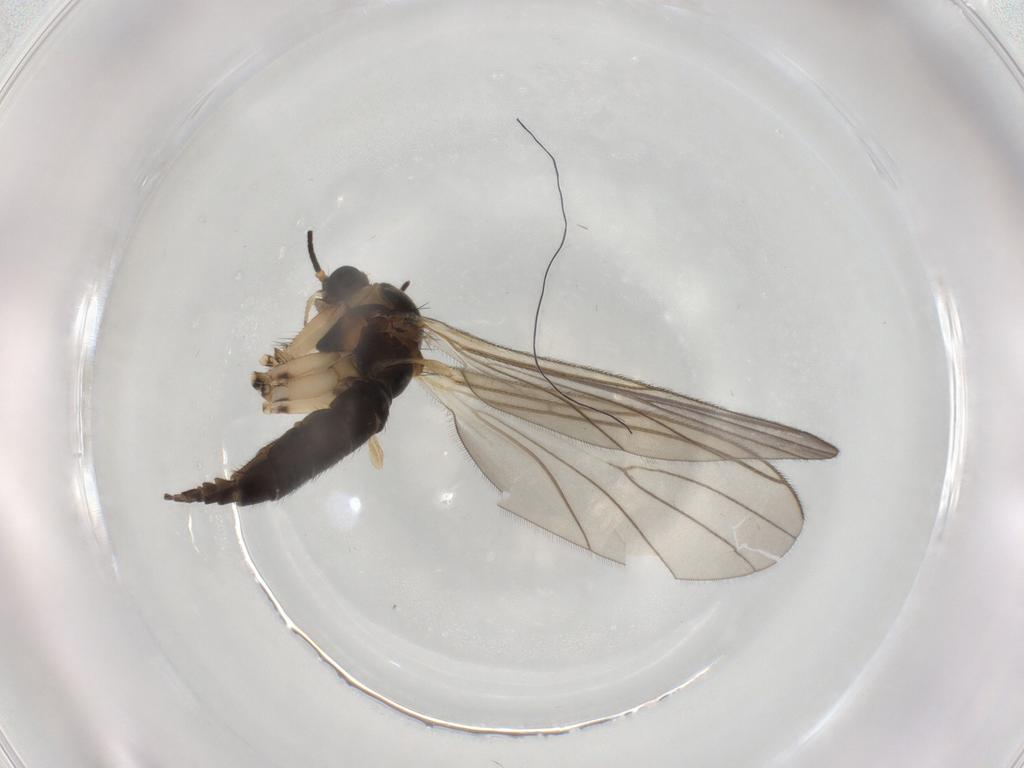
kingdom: Animalia
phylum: Arthropoda
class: Insecta
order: Diptera
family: Sciaridae
